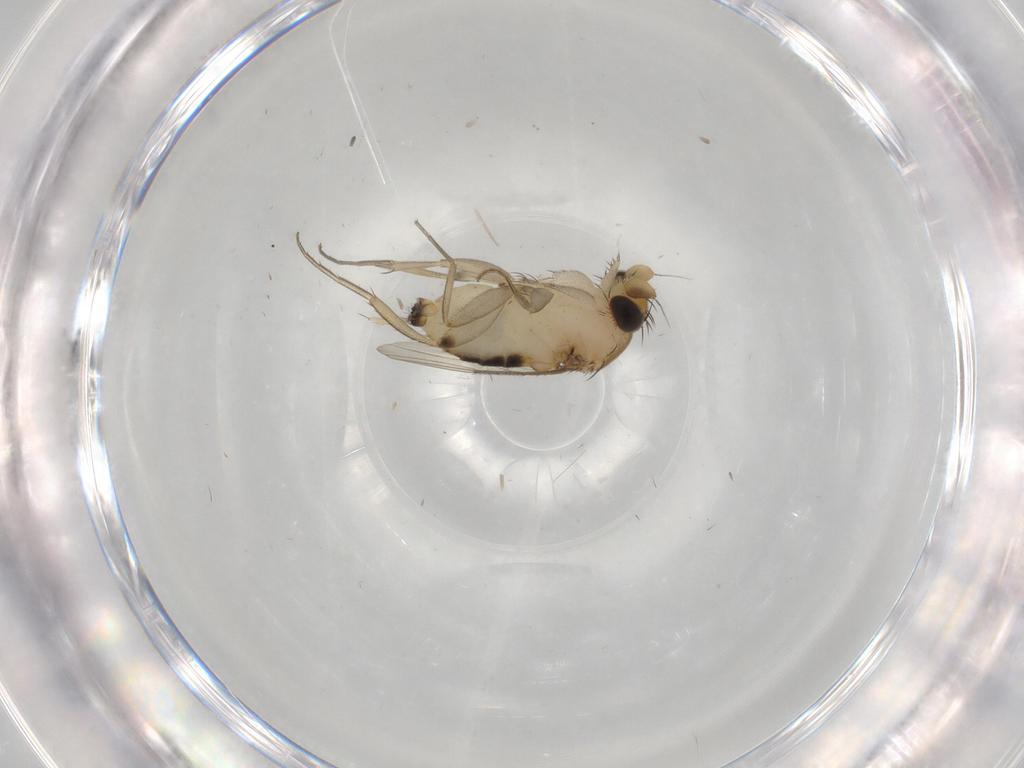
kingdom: Animalia
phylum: Arthropoda
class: Insecta
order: Diptera
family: Phoridae
